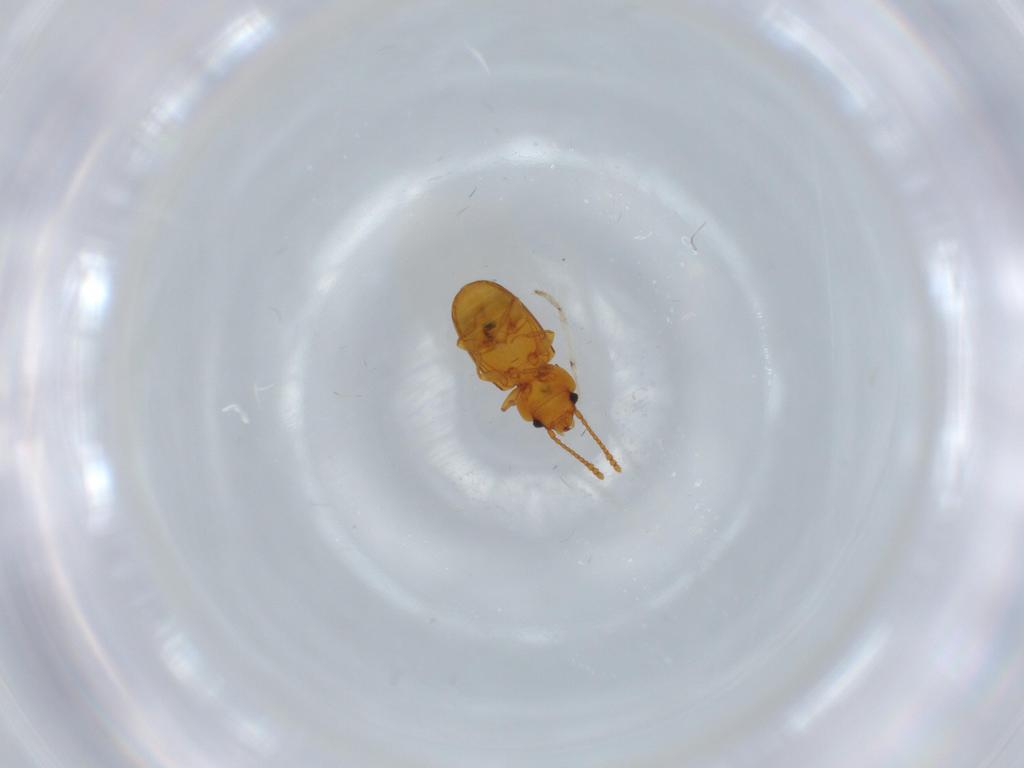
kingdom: Animalia
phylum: Arthropoda
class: Insecta
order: Coleoptera
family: Laemophloeidae
